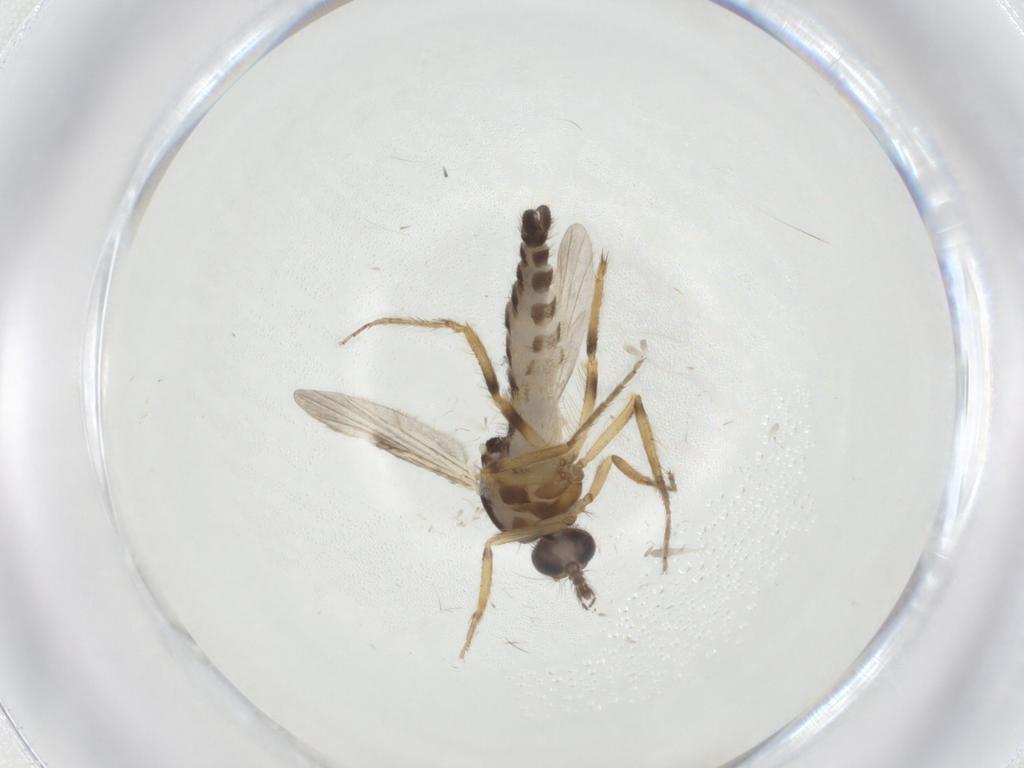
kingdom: Animalia
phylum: Arthropoda
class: Insecta
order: Diptera
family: Ceratopogonidae
